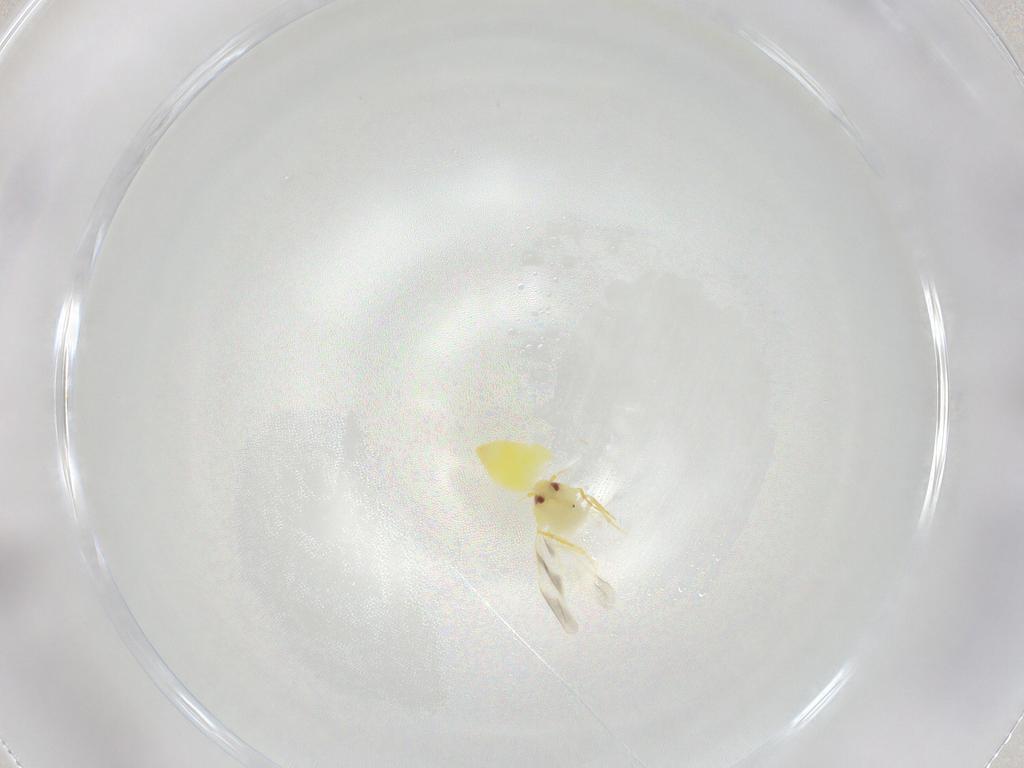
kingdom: Animalia
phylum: Arthropoda
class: Insecta
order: Hemiptera
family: Aleyrodidae
